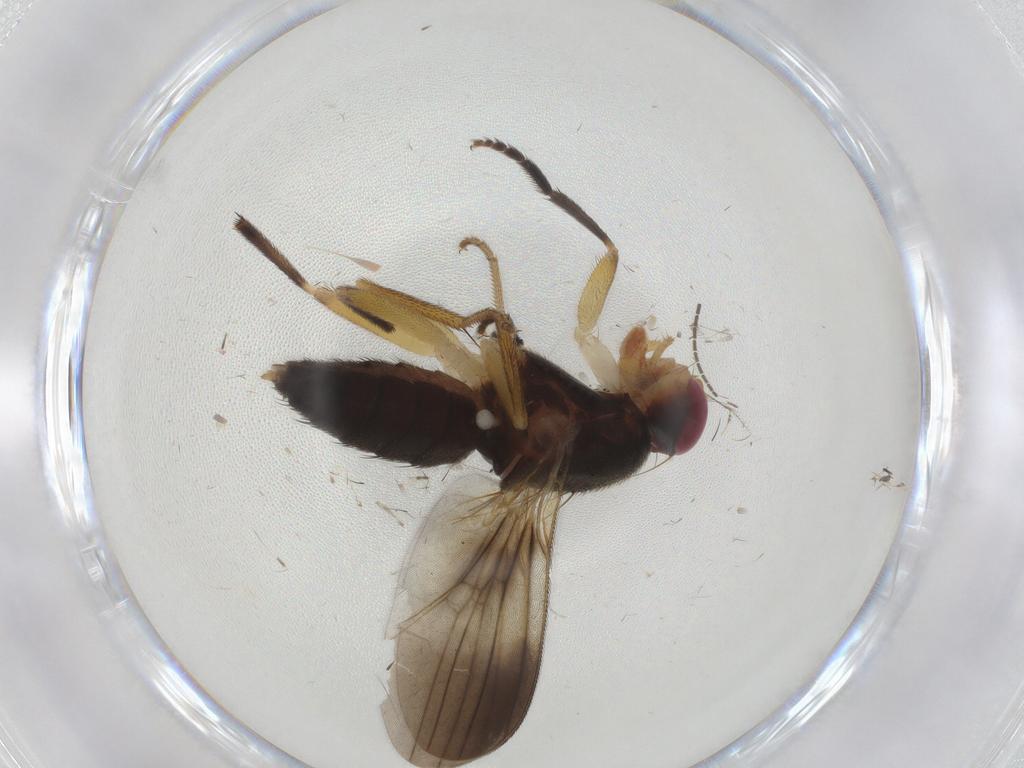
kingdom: Animalia
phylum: Arthropoda
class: Insecta
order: Diptera
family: Clusiidae
